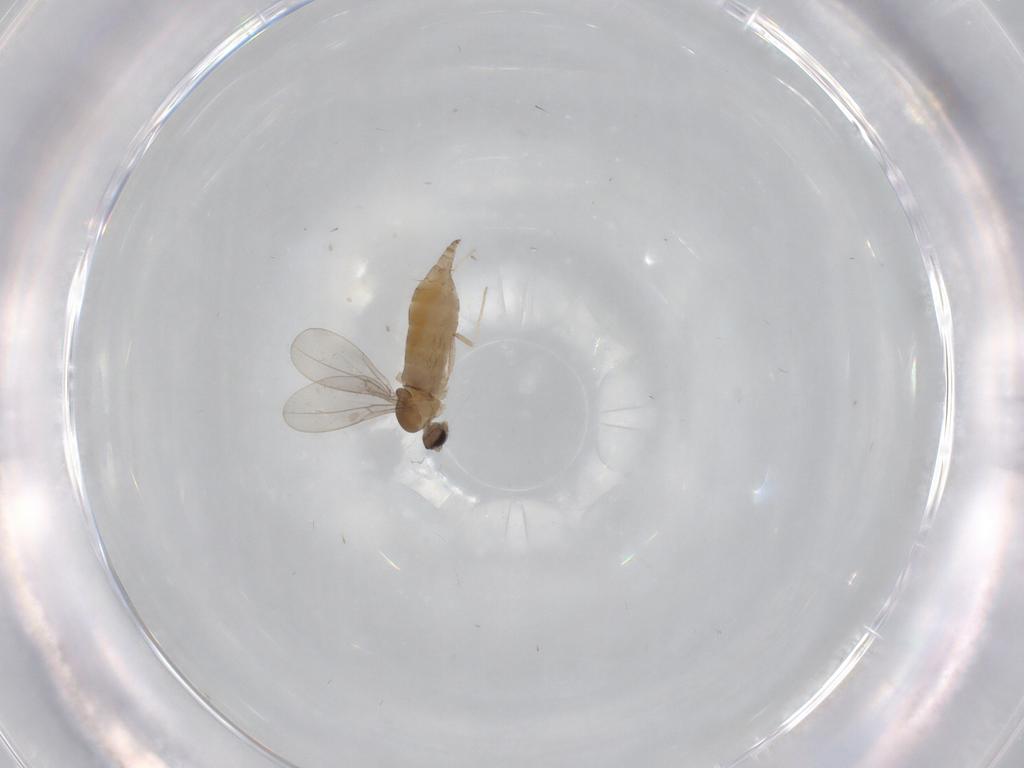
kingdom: Animalia
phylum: Arthropoda
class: Insecta
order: Diptera
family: Cecidomyiidae
